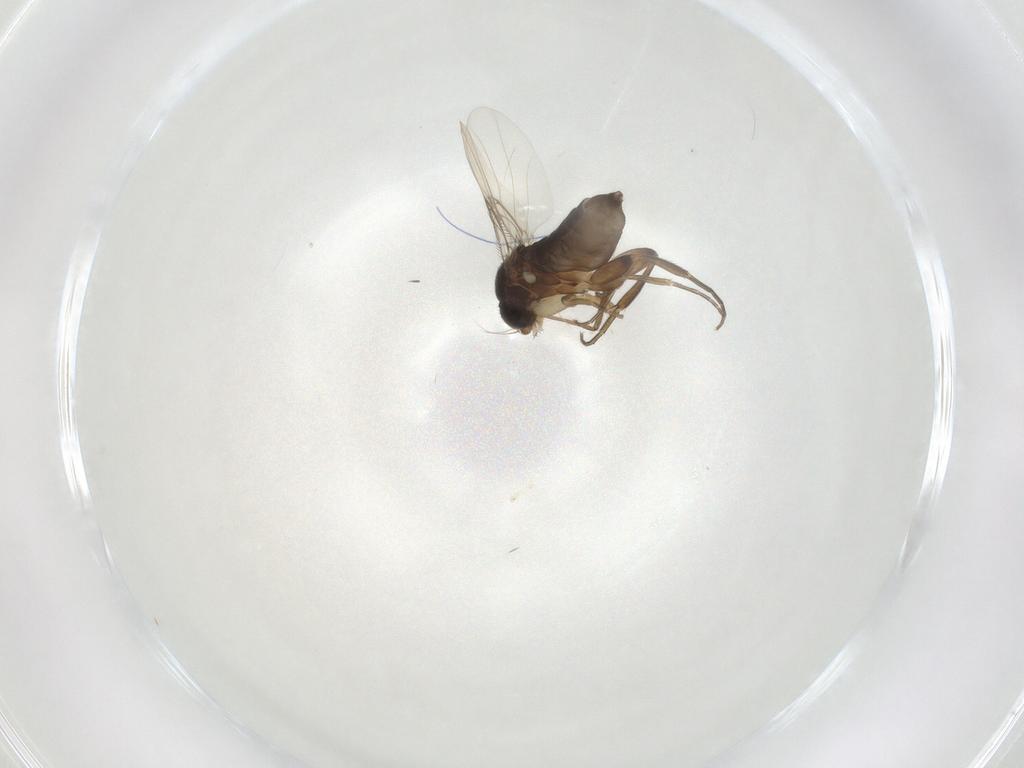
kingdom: Animalia
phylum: Arthropoda
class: Insecta
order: Diptera
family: Phoridae
